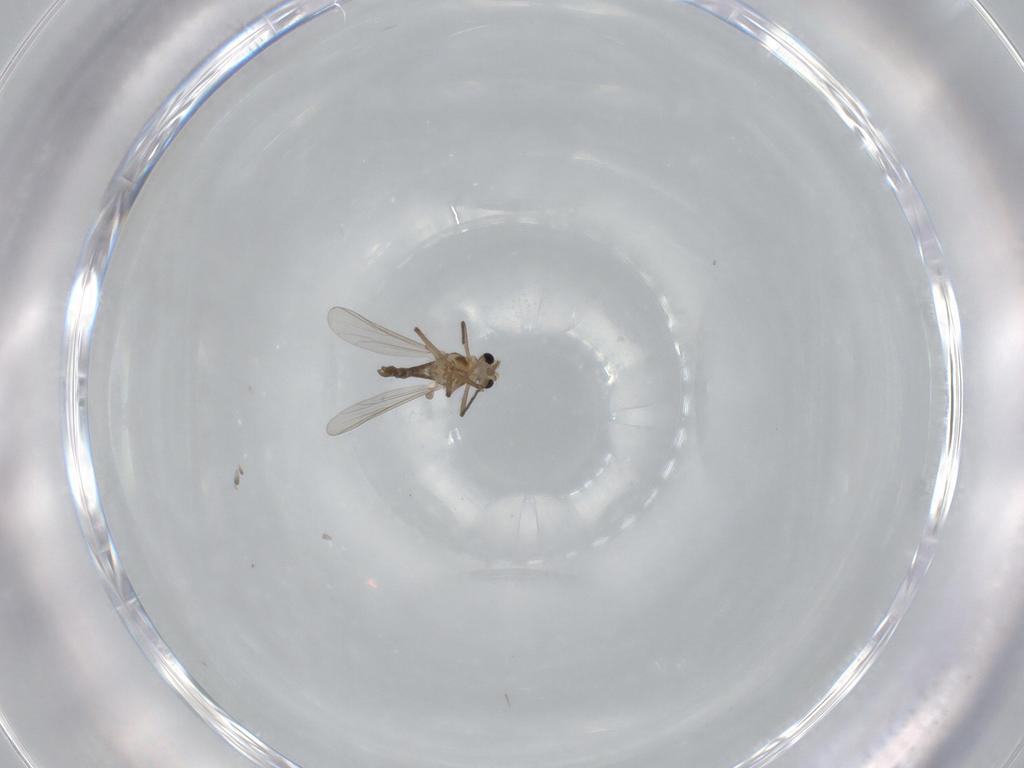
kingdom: Animalia
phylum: Arthropoda
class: Insecta
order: Diptera
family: Chironomidae
